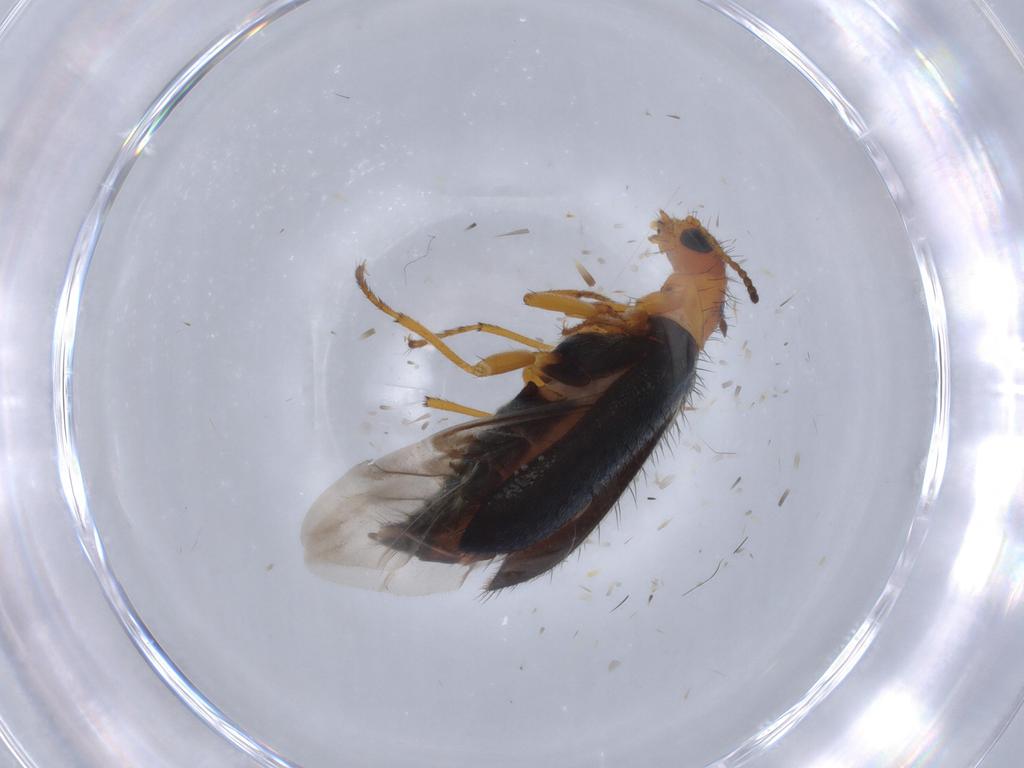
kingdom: Animalia
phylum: Arthropoda
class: Insecta
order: Coleoptera
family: Melyridae
